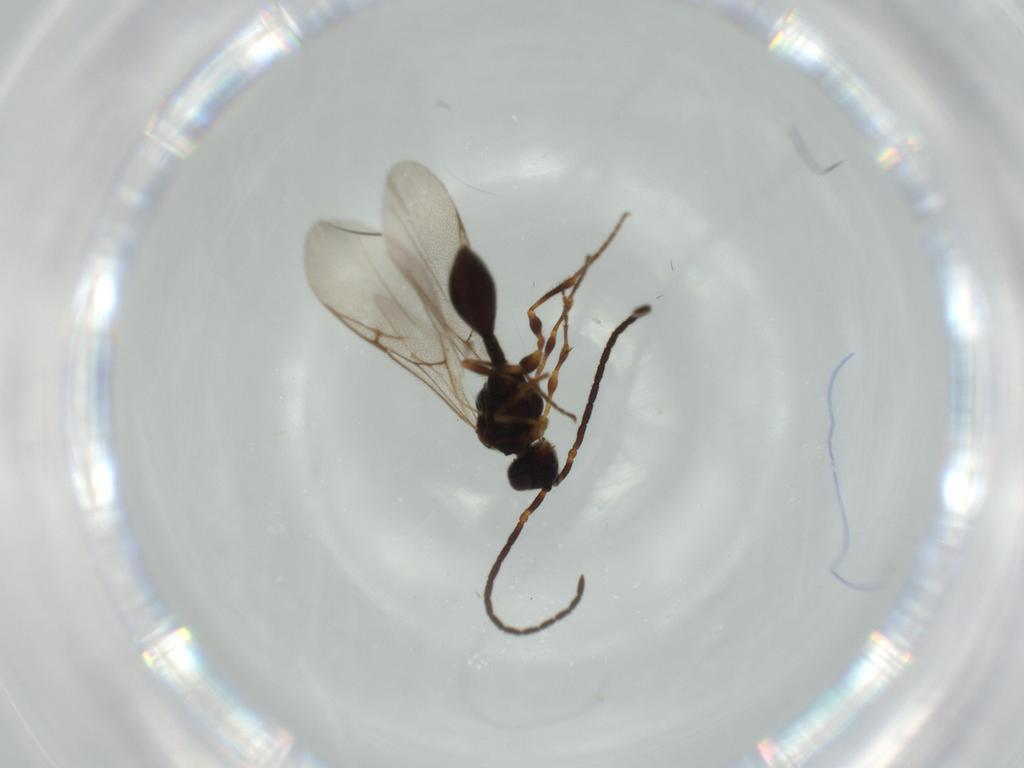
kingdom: Animalia
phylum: Arthropoda
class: Insecta
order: Hymenoptera
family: Diapriidae
